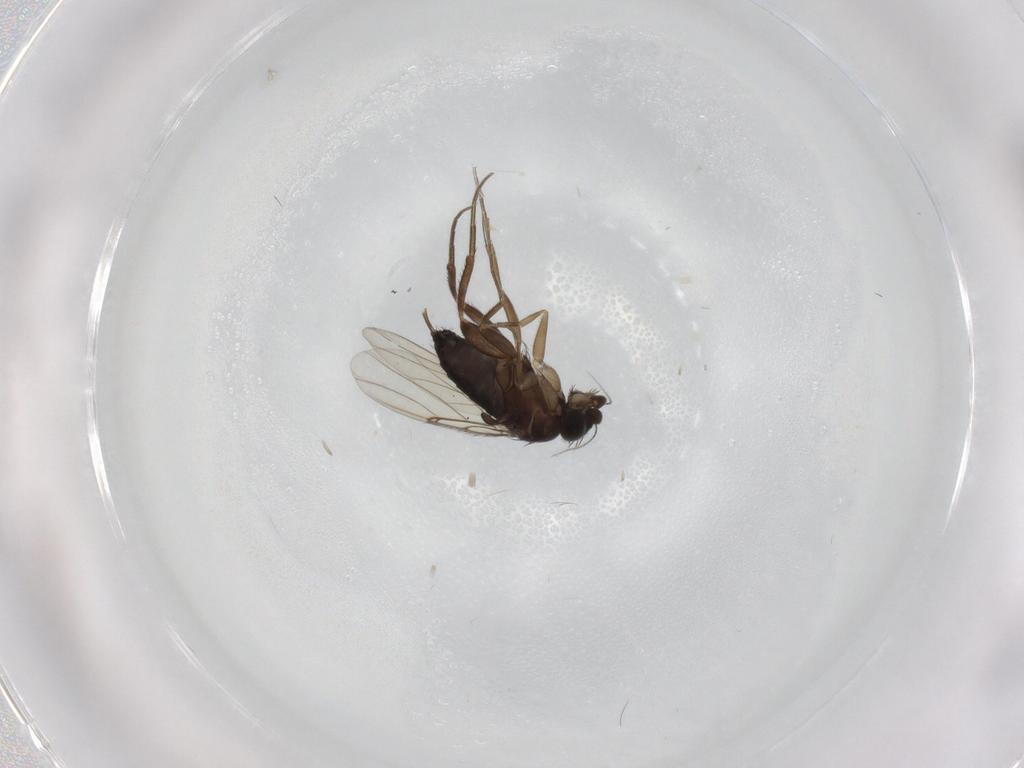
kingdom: Animalia
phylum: Arthropoda
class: Insecta
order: Diptera
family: Phoridae
